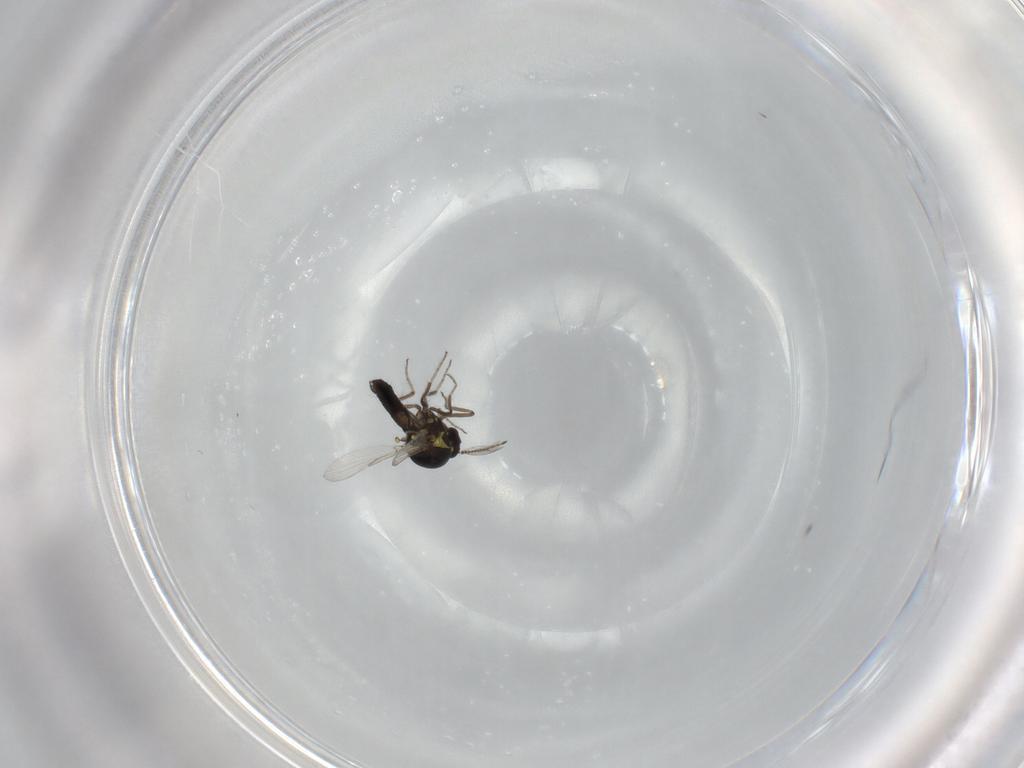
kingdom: Animalia
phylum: Arthropoda
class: Insecta
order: Diptera
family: Ceratopogonidae
